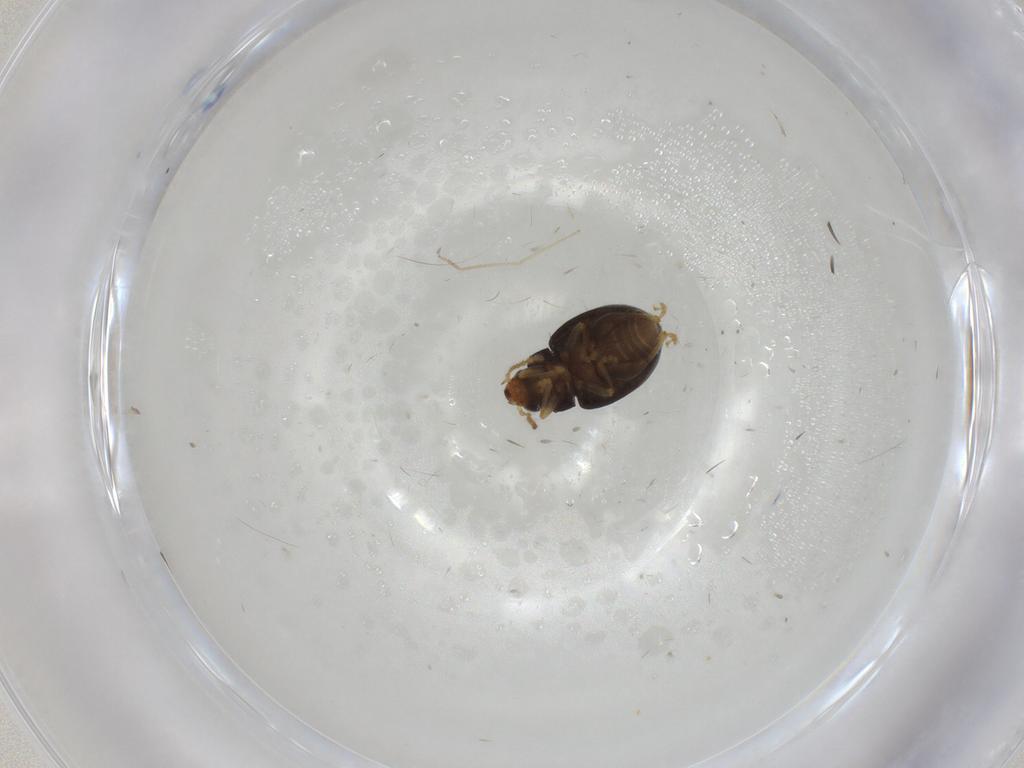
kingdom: Animalia
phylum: Arthropoda
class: Insecta
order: Coleoptera
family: Chrysomelidae
